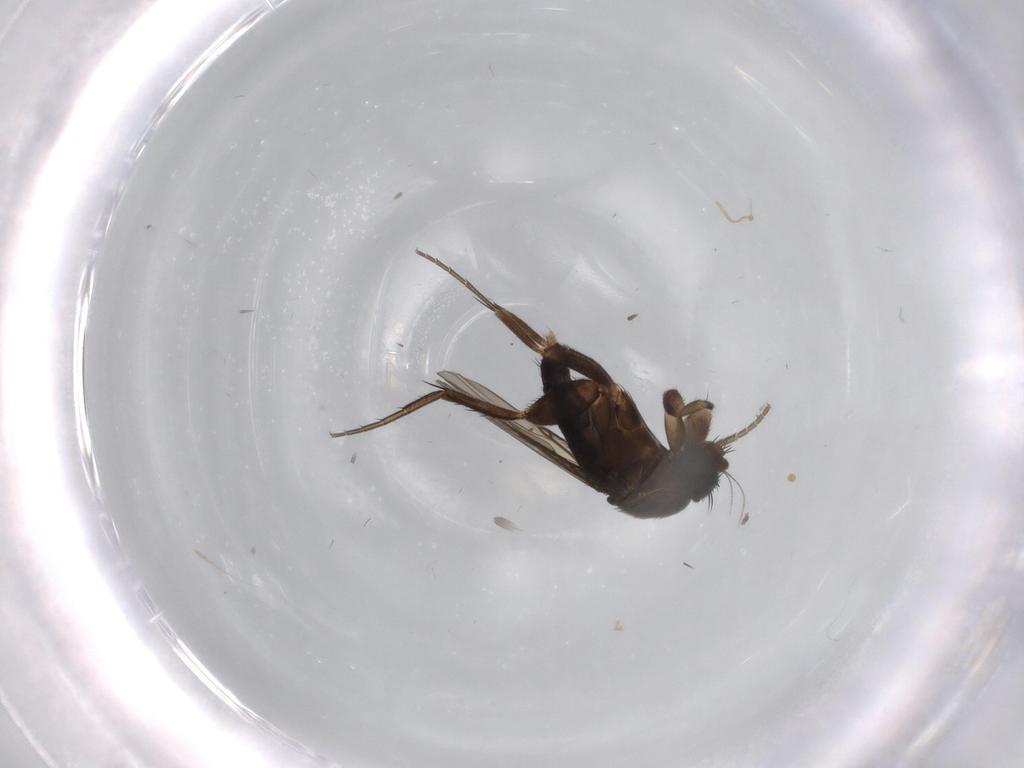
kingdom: Animalia
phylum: Arthropoda
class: Insecta
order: Diptera
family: Phoridae
